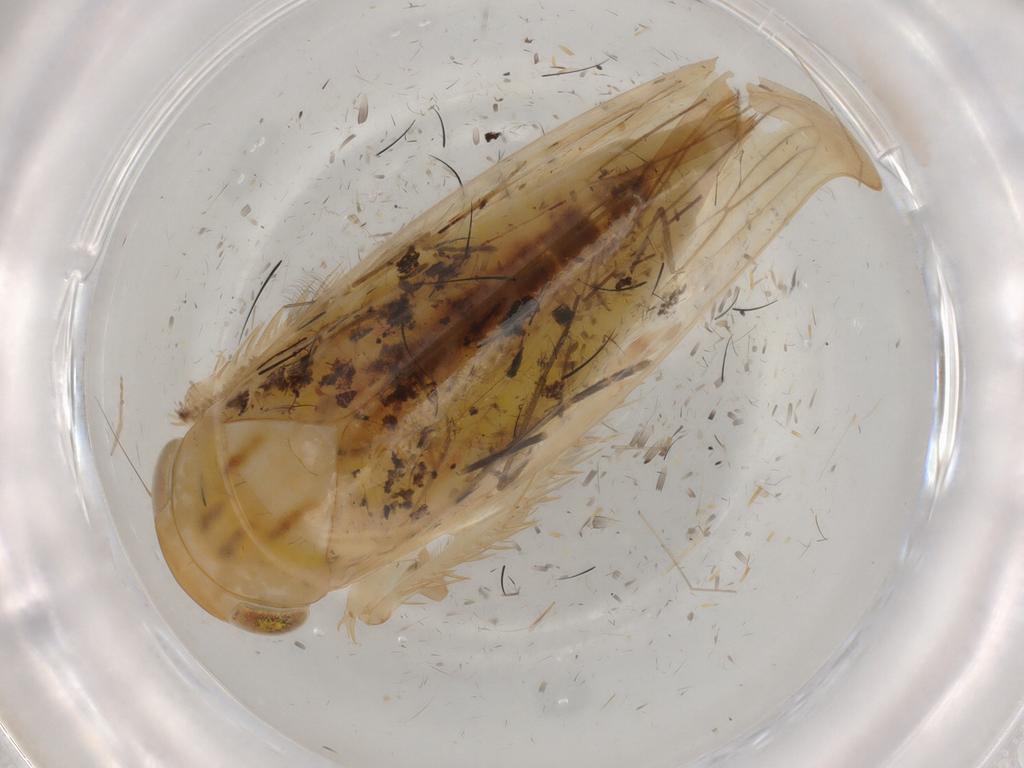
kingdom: Animalia
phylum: Arthropoda
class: Insecta
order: Hemiptera
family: Cicadellidae
